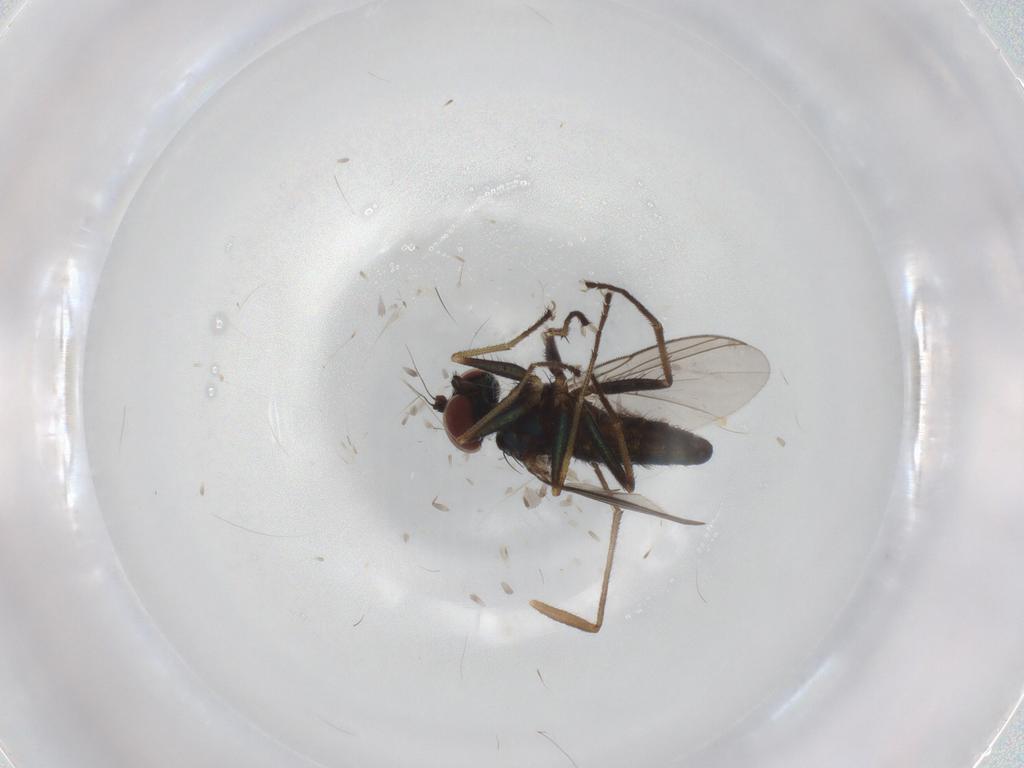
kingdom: Animalia
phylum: Arthropoda
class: Insecta
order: Diptera
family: Dolichopodidae
